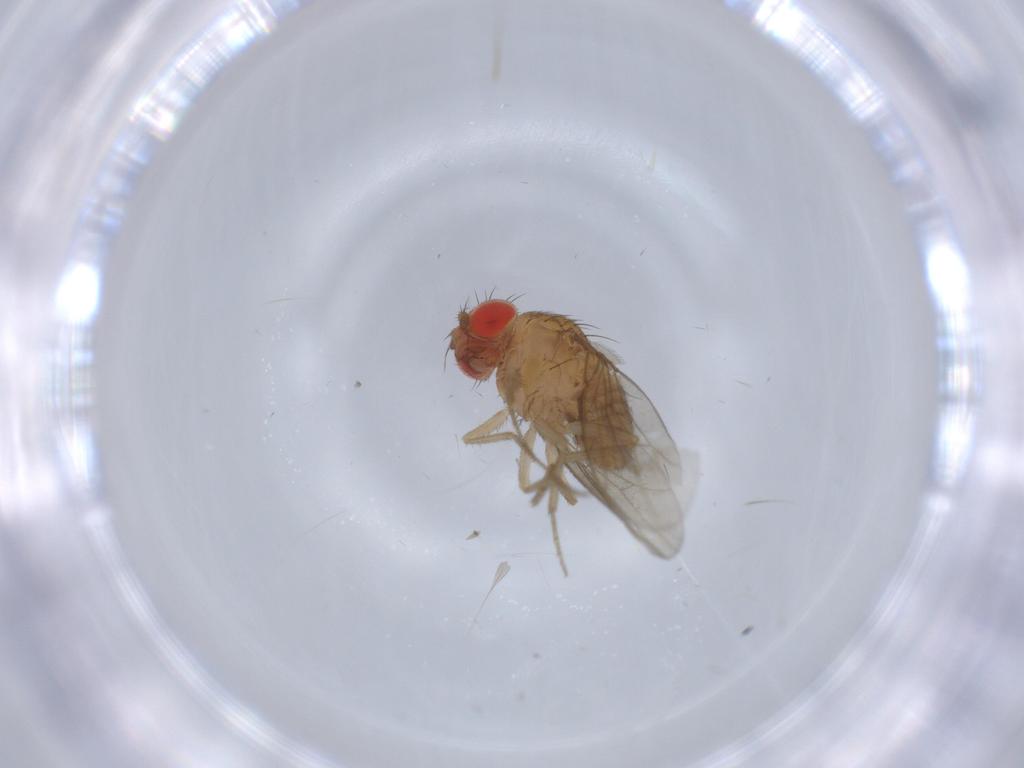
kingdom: Animalia
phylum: Arthropoda
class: Insecta
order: Diptera
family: Drosophilidae
